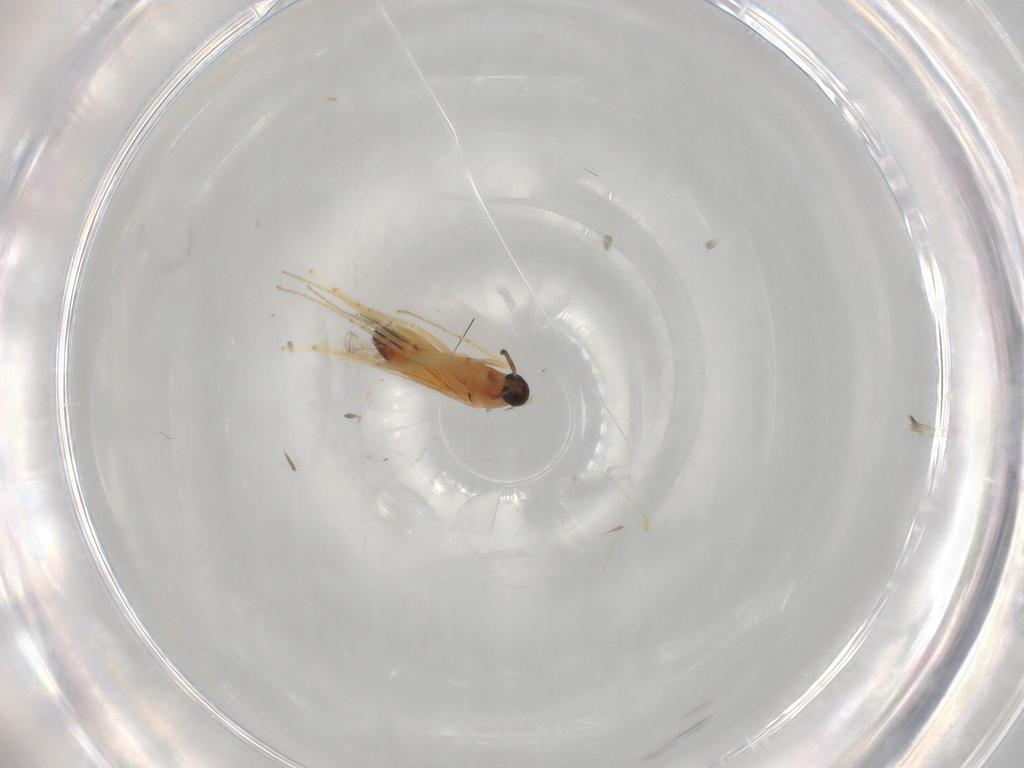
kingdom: Animalia
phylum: Arthropoda
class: Insecta
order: Diptera
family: Cecidomyiidae
